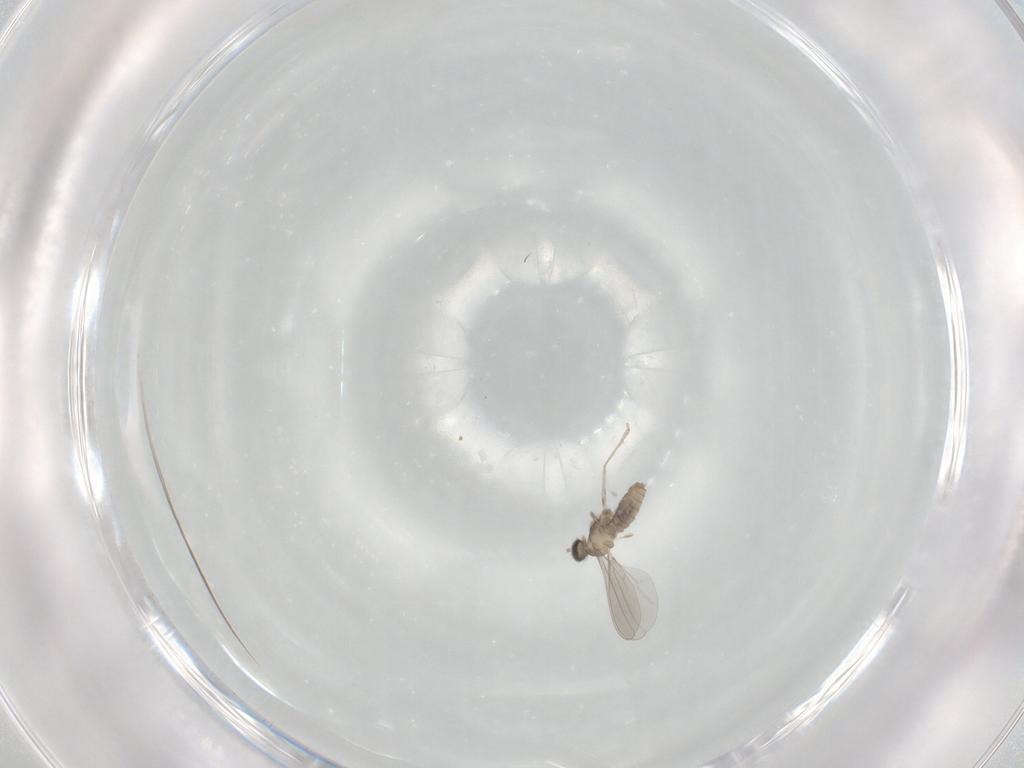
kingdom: Animalia
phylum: Arthropoda
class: Insecta
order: Diptera
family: Cecidomyiidae
